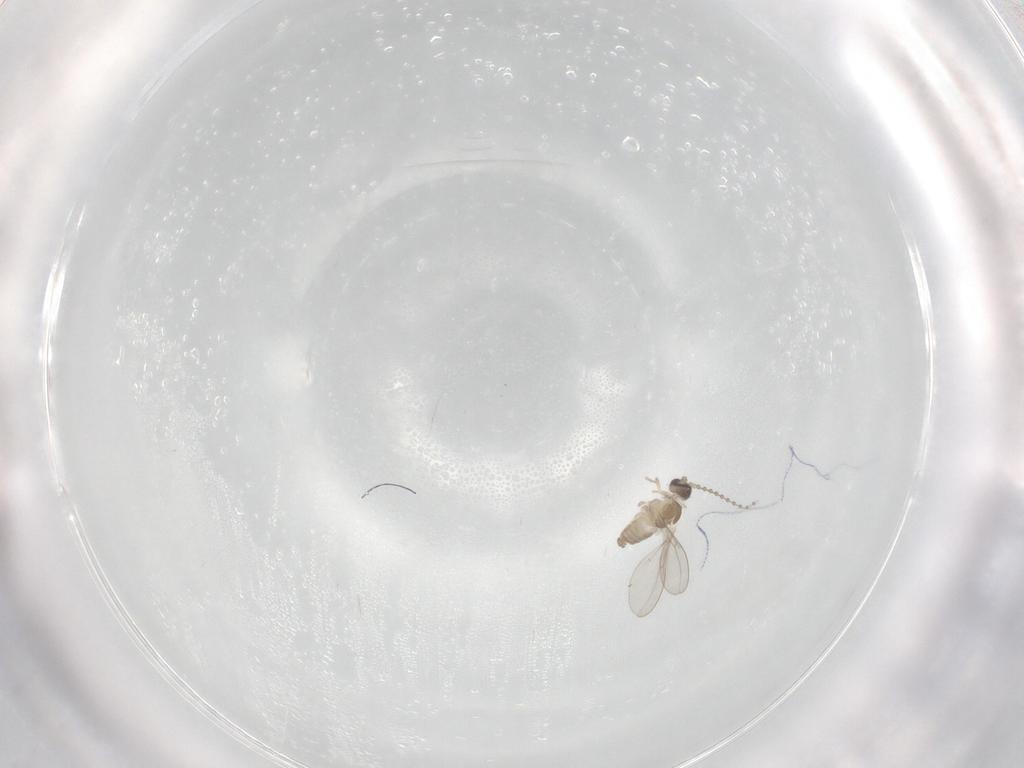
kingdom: Animalia
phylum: Arthropoda
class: Insecta
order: Diptera
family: Cecidomyiidae
